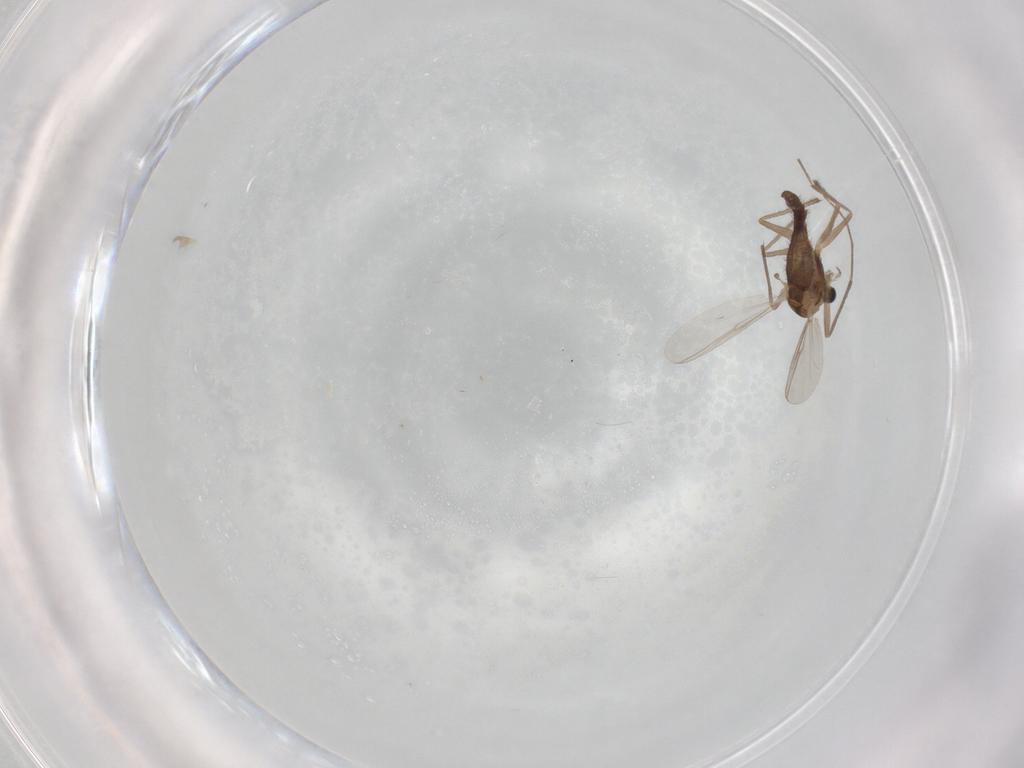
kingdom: Animalia
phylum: Arthropoda
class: Insecta
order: Diptera
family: Chironomidae
